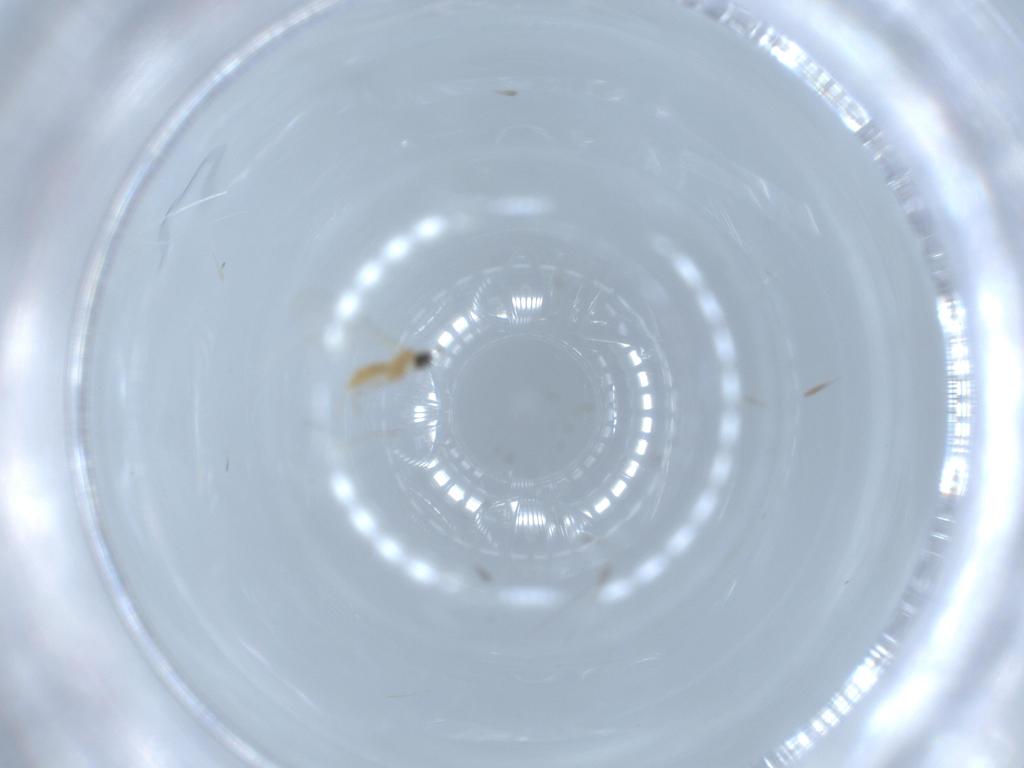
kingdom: Animalia
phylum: Arthropoda
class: Insecta
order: Diptera
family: Cecidomyiidae
